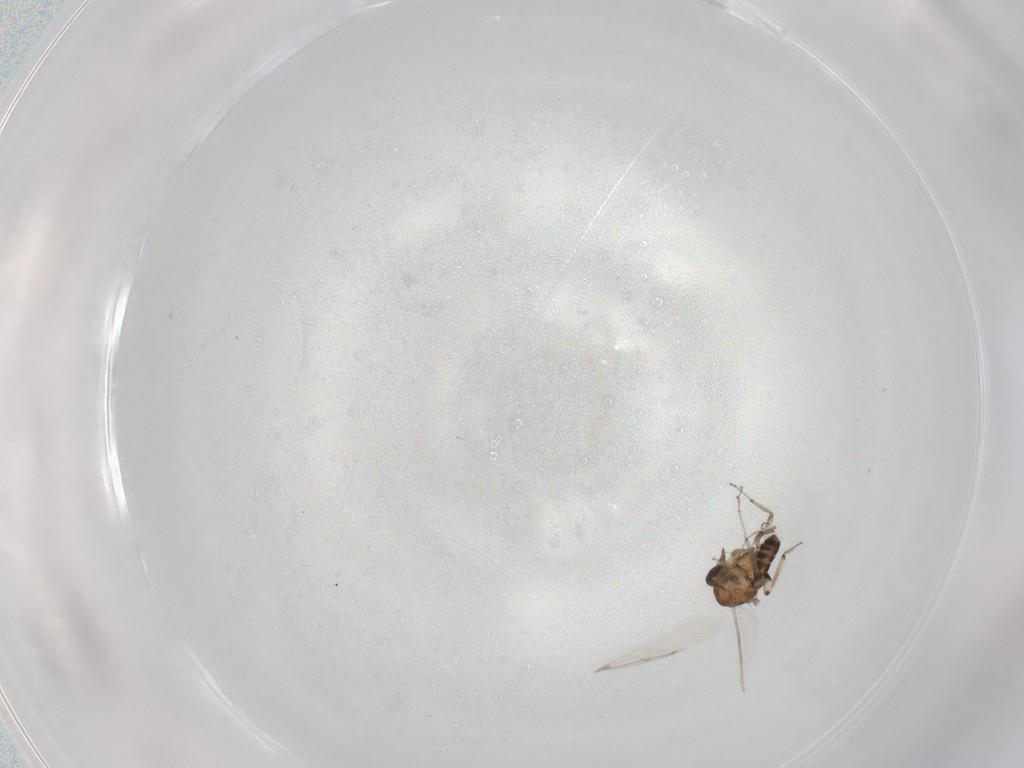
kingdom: Animalia
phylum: Arthropoda
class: Insecta
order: Diptera
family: Ceratopogonidae
